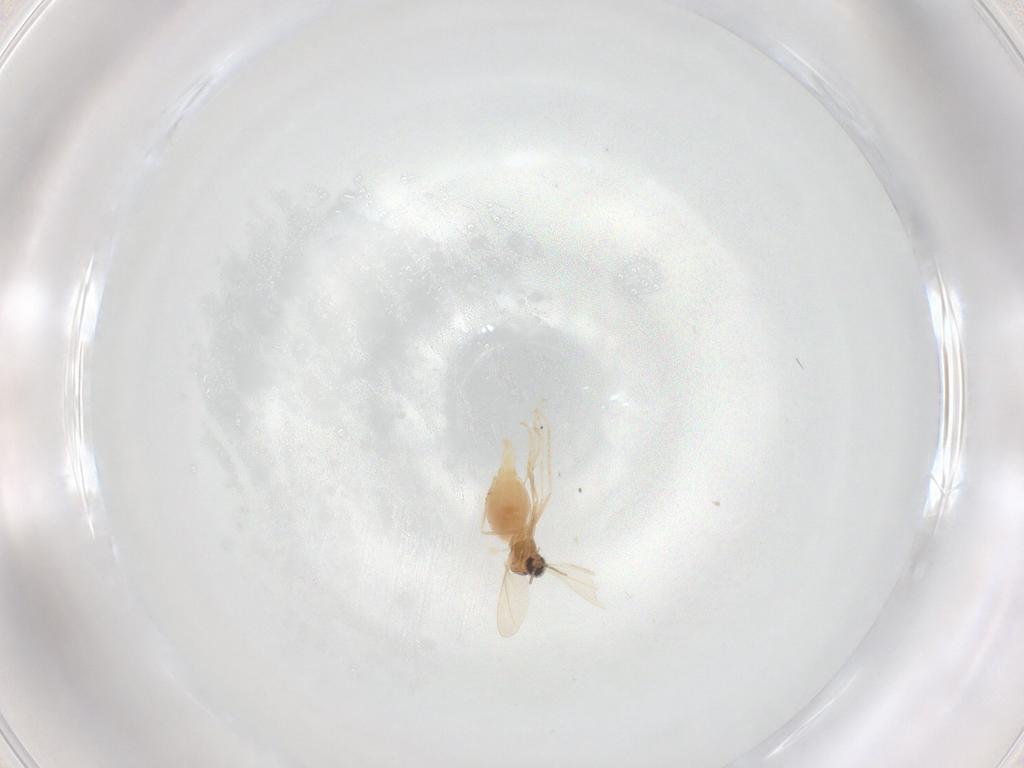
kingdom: Animalia
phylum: Arthropoda
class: Insecta
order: Diptera
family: Cecidomyiidae
